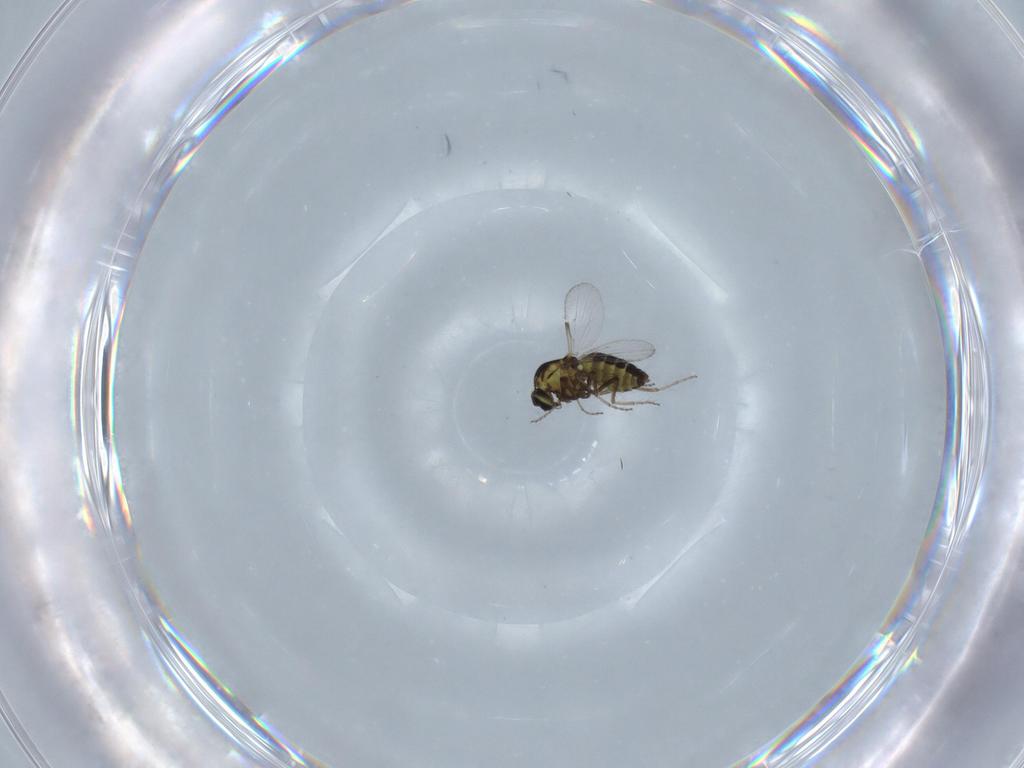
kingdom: Animalia
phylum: Arthropoda
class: Insecta
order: Diptera
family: Ceratopogonidae
